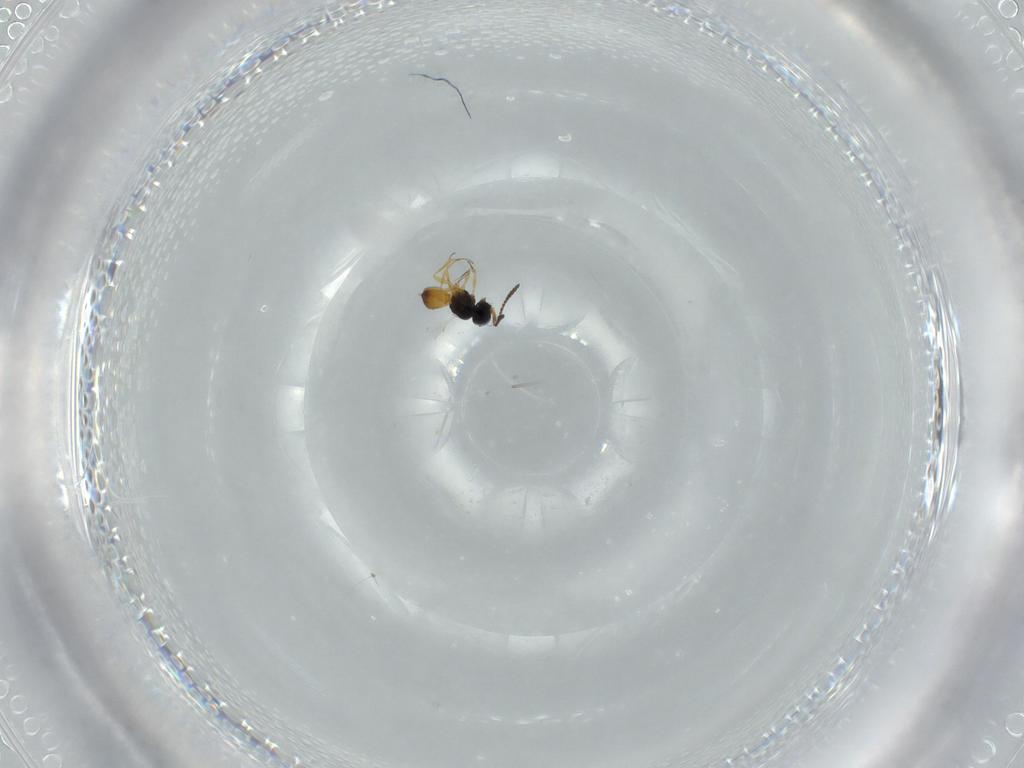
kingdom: Animalia
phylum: Arthropoda
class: Insecta
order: Hymenoptera
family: Scelionidae
